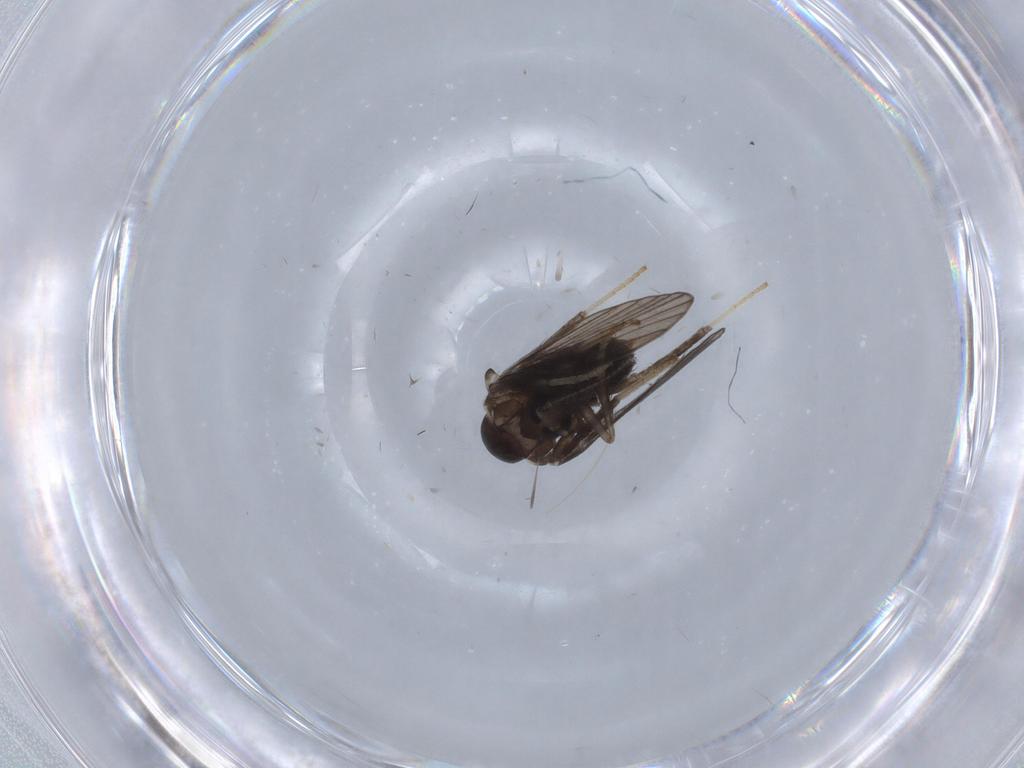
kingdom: Animalia
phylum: Arthropoda
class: Insecta
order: Diptera
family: Psychodidae
